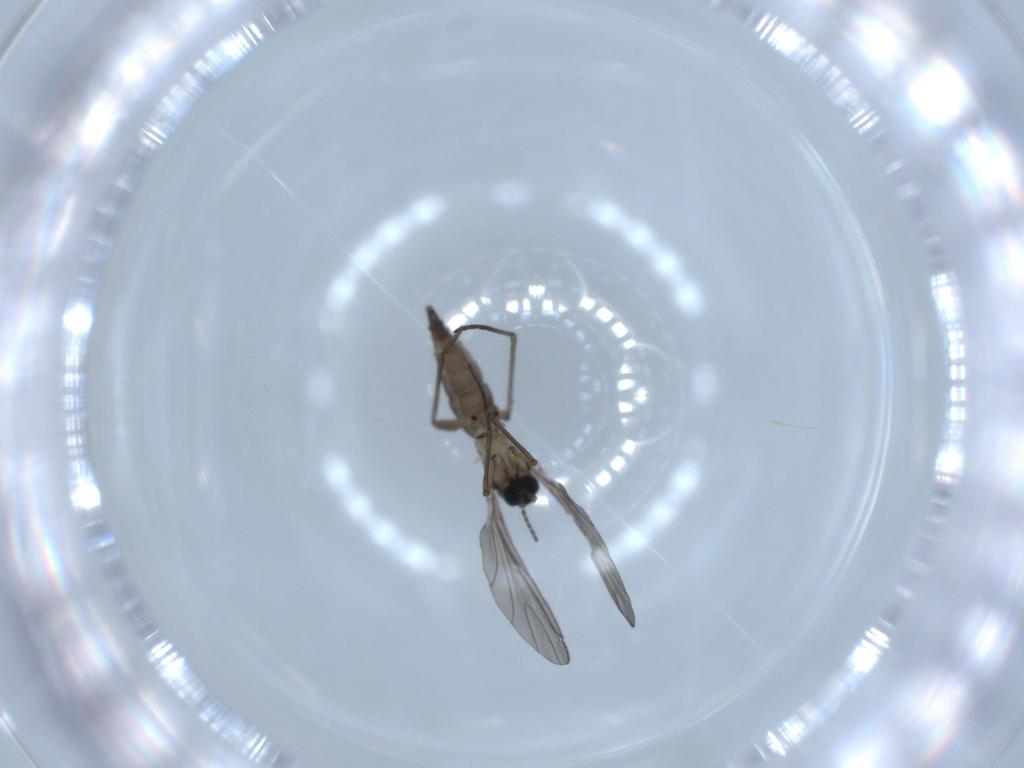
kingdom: Animalia
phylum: Arthropoda
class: Insecta
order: Diptera
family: Sciaridae
